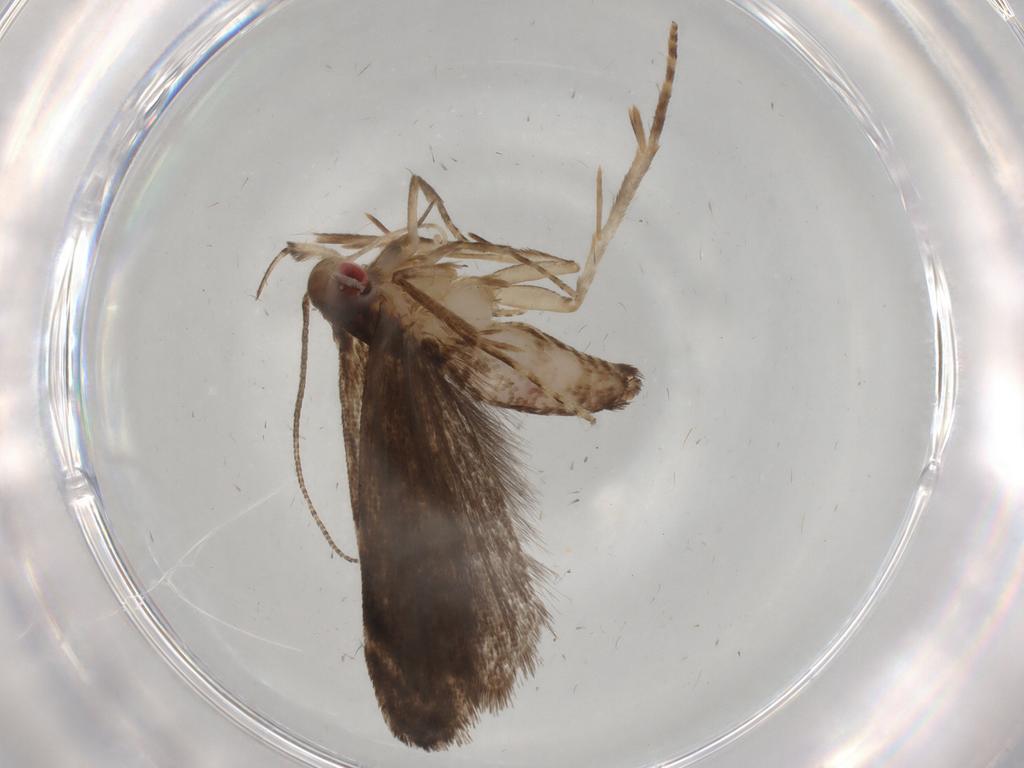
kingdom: Animalia
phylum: Arthropoda
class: Insecta
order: Lepidoptera
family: Gelechiidae
